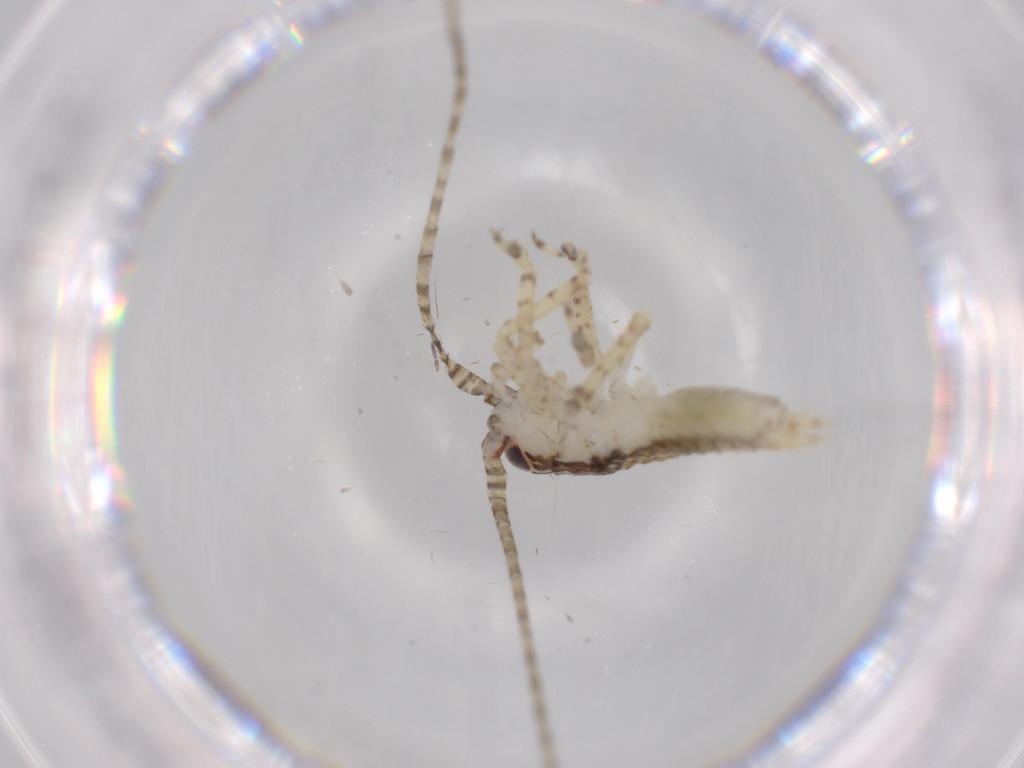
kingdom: Animalia
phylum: Arthropoda
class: Insecta
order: Orthoptera
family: Gryllidae
